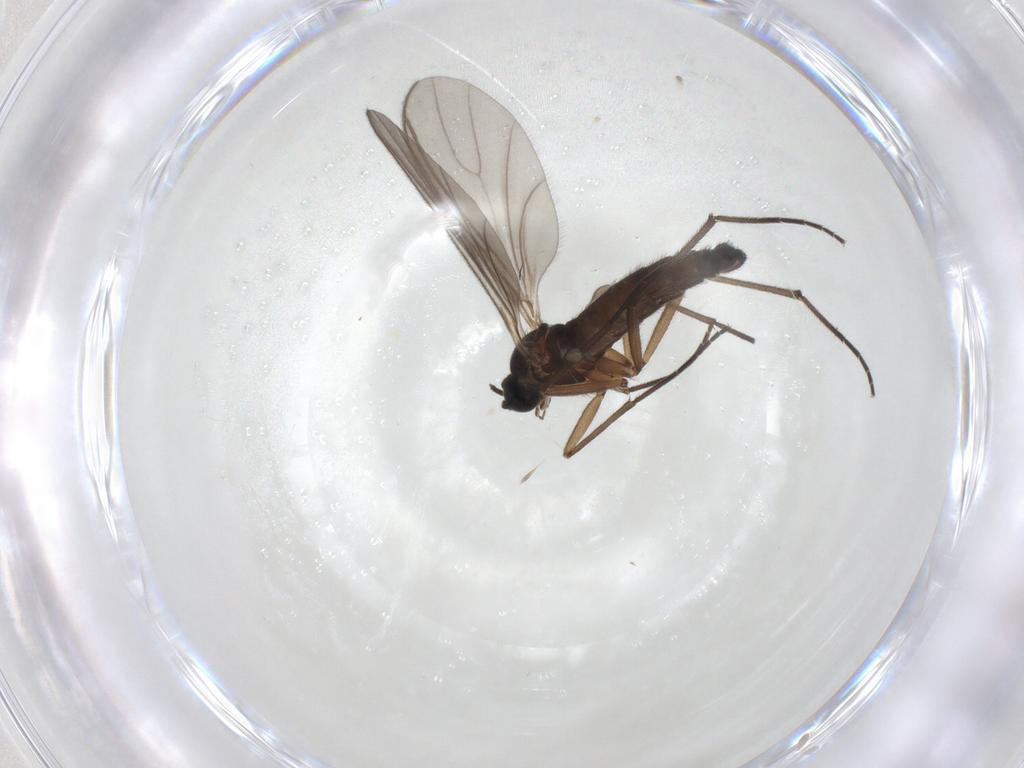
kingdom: Animalia
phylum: Arthropoda
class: Insecta
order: Diptera
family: Sciaridae
